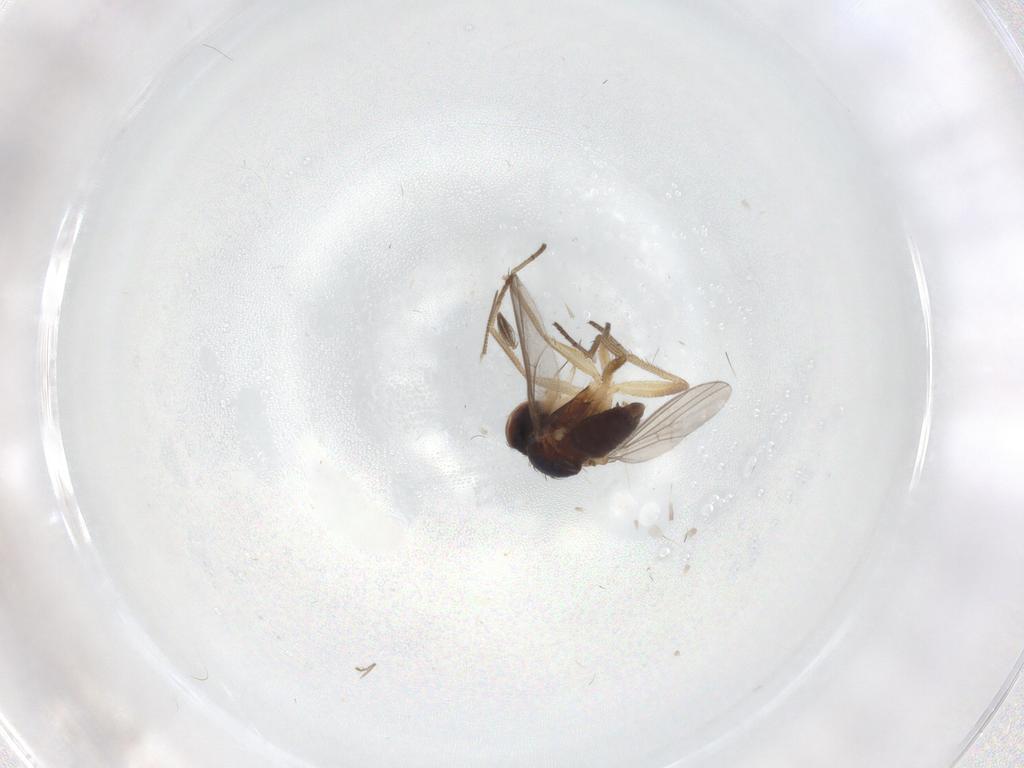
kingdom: Animalia
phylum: Arthropoda
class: Insecta
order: Diptera
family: Dolichopodidae
